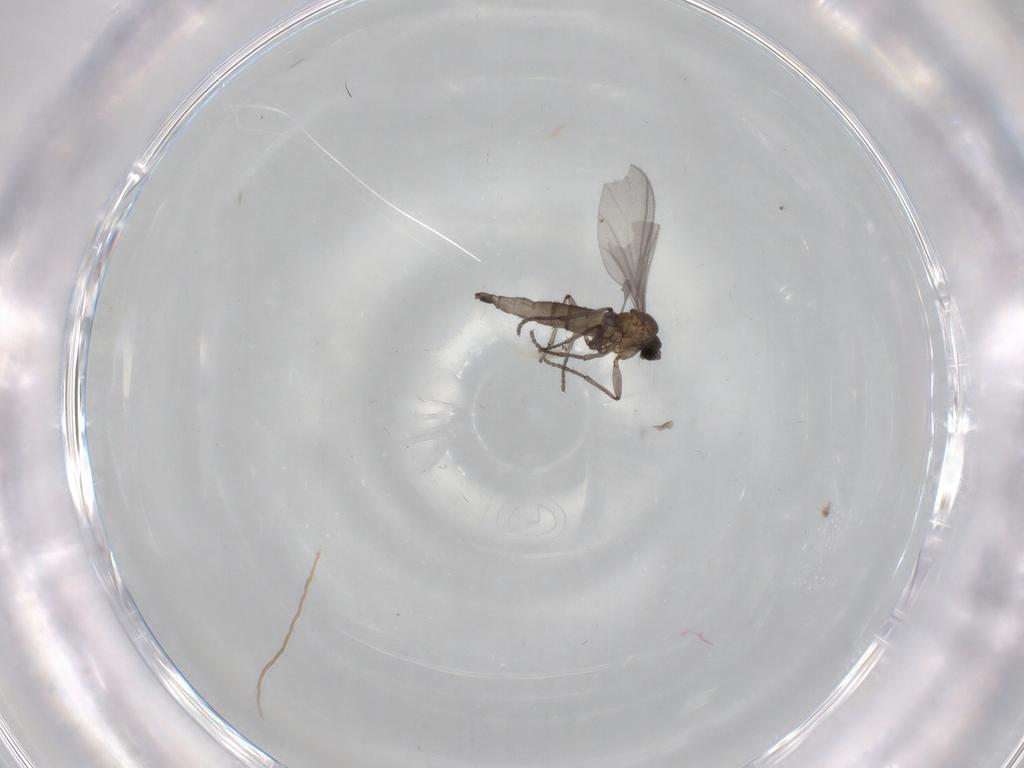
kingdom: Animalia
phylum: Arthropoda
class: Insecta
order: Diptera
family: Sciaridae
